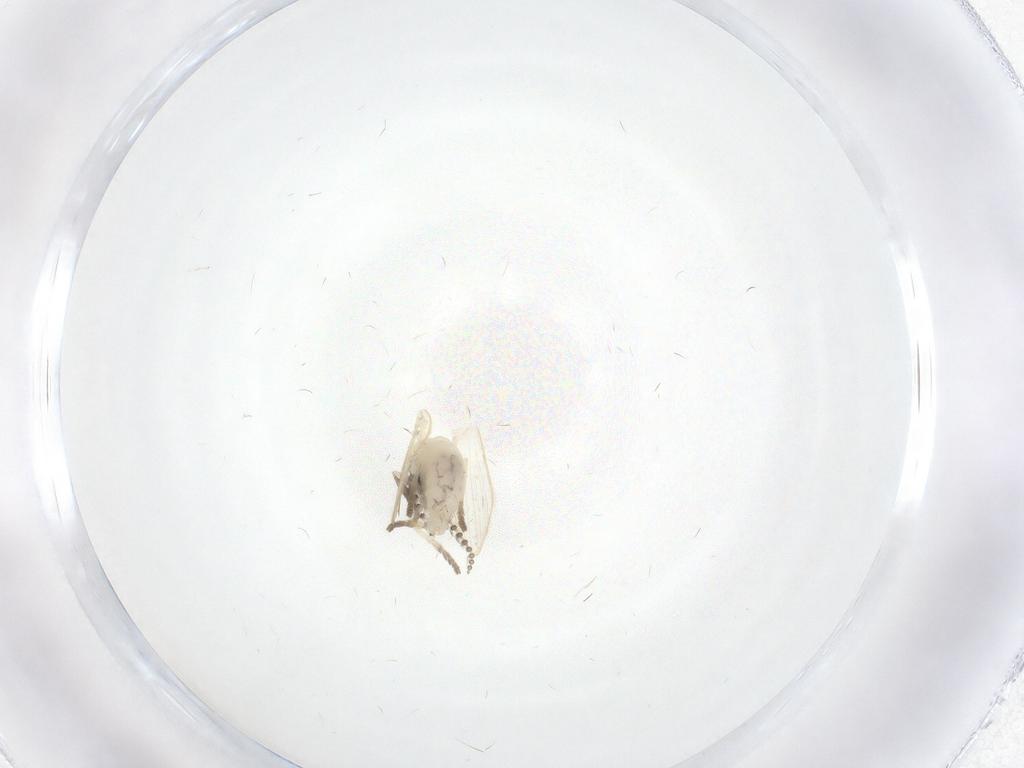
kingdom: Animalia
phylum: Arthropoda
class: Insecta
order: Diptera
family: Psychodidae
